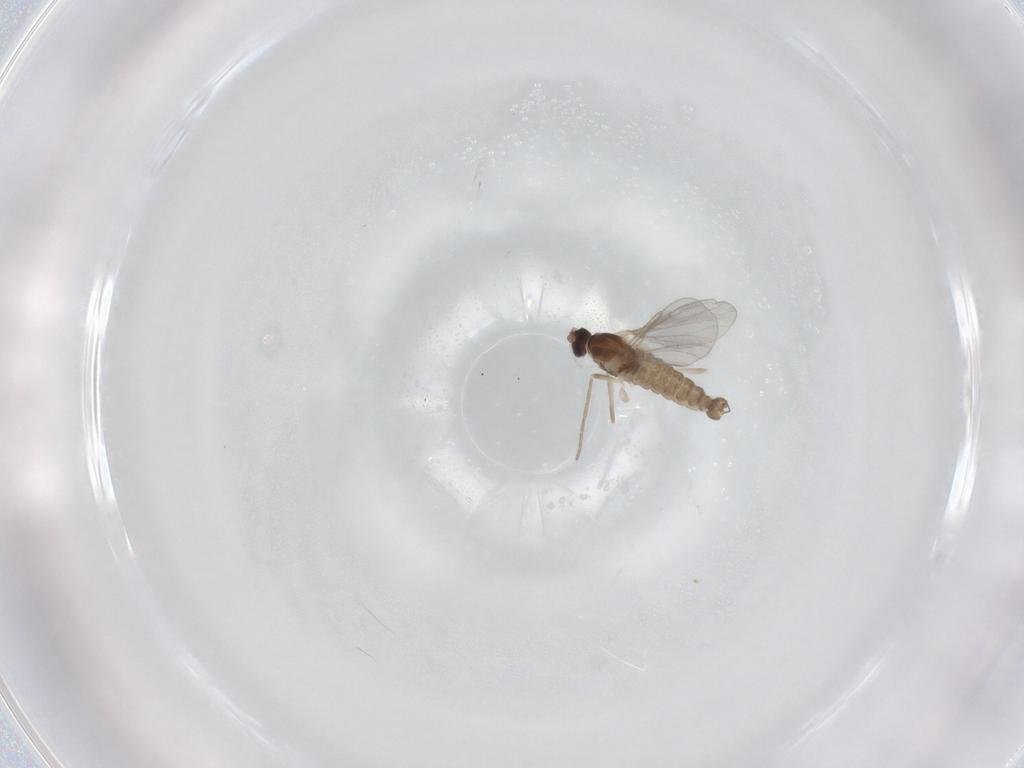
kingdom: Animalia
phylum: Arthropoda
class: Insecta
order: Diptera
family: Cecidomyiidae
